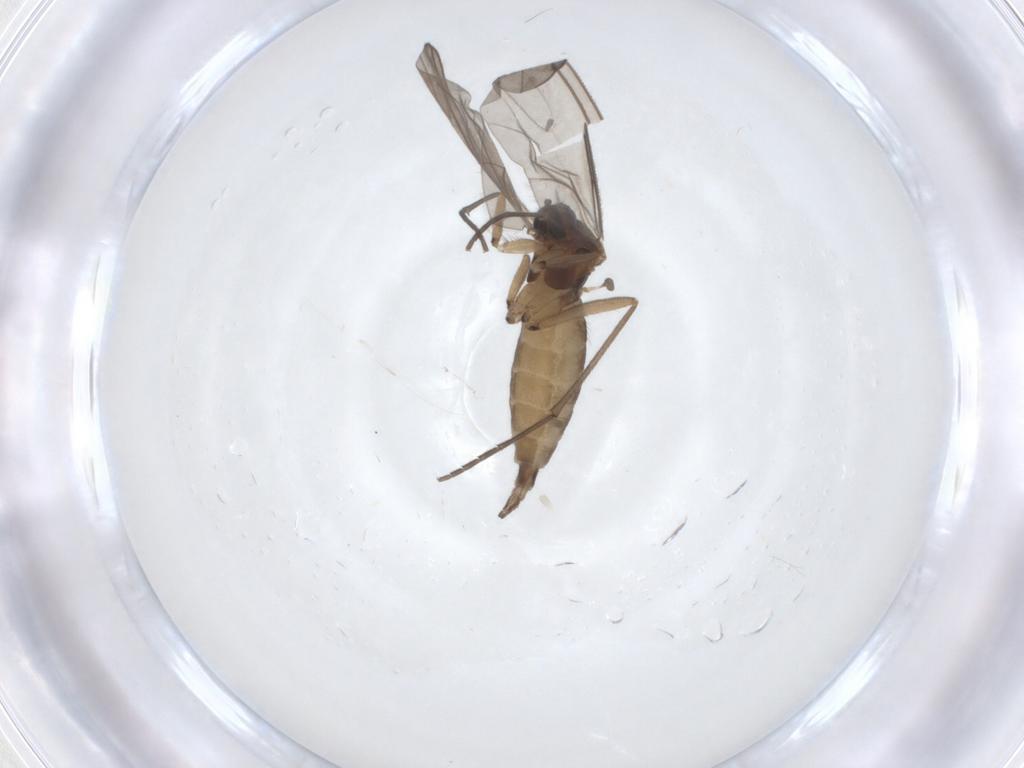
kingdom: Animalia
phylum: Arthropoda
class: Insecta
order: Diptera
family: Sciaridae
